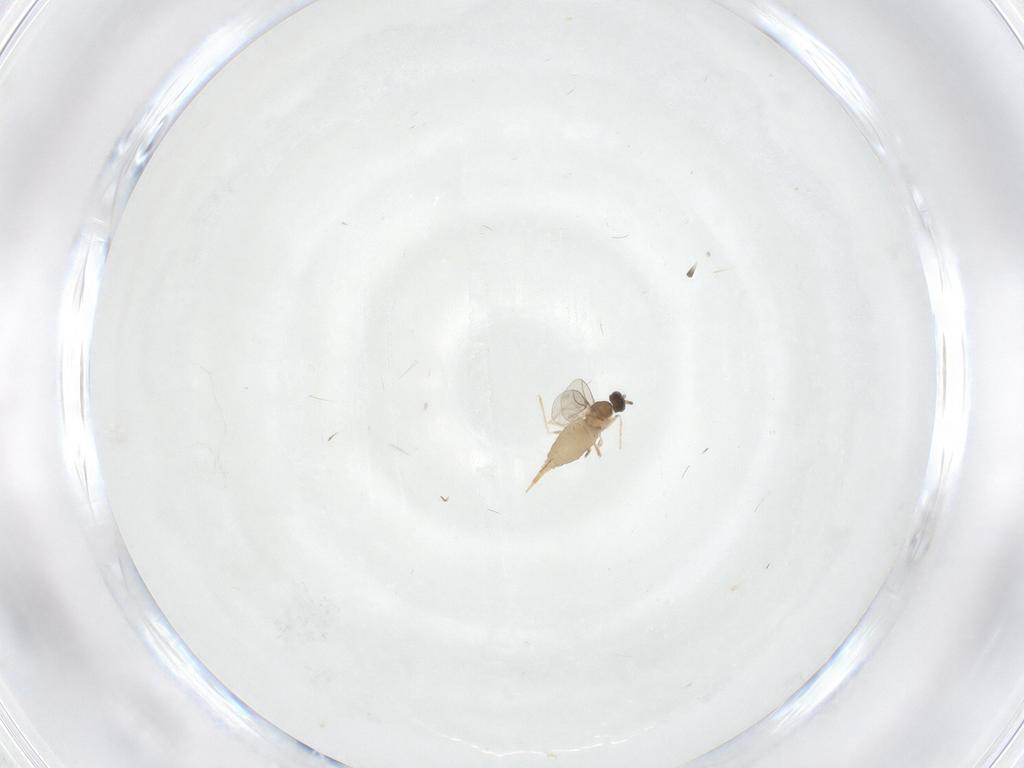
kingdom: Animalia
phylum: Arthropoda
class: Insecta
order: Diptera
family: Cecidomyiidae
